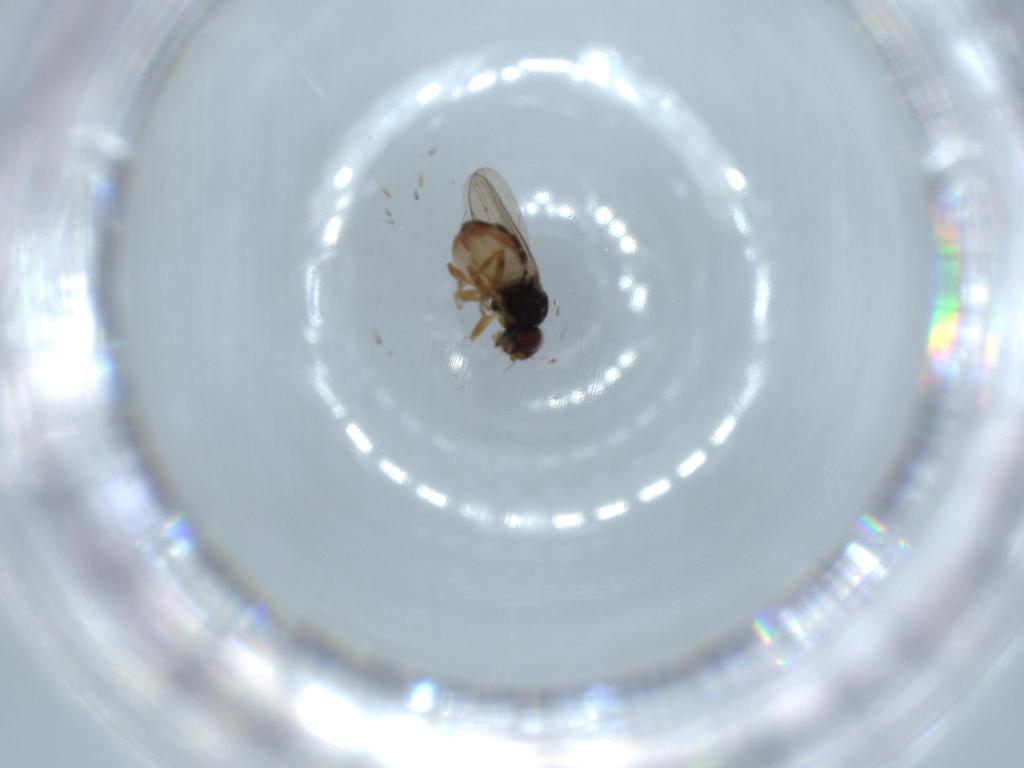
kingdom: Animalia
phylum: Arthropoda
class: Insecta
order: Diptera
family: Chloropidae
